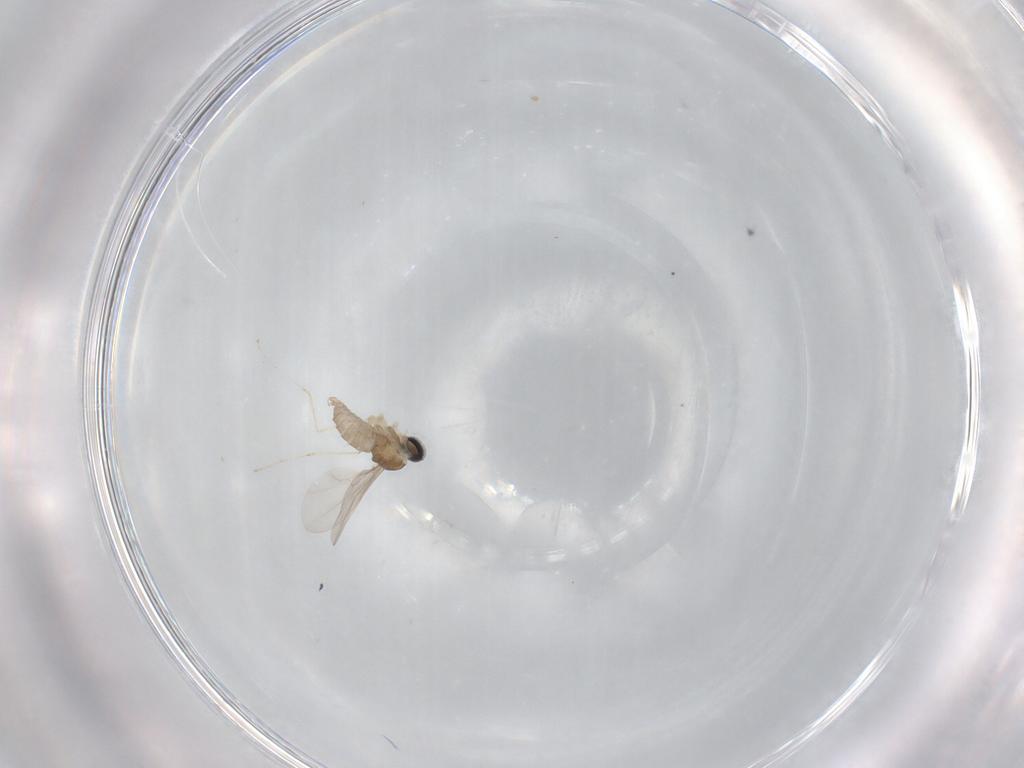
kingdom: Animalia
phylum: Arthropoda
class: Insecta
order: Diptera
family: Cecidomyiidae
